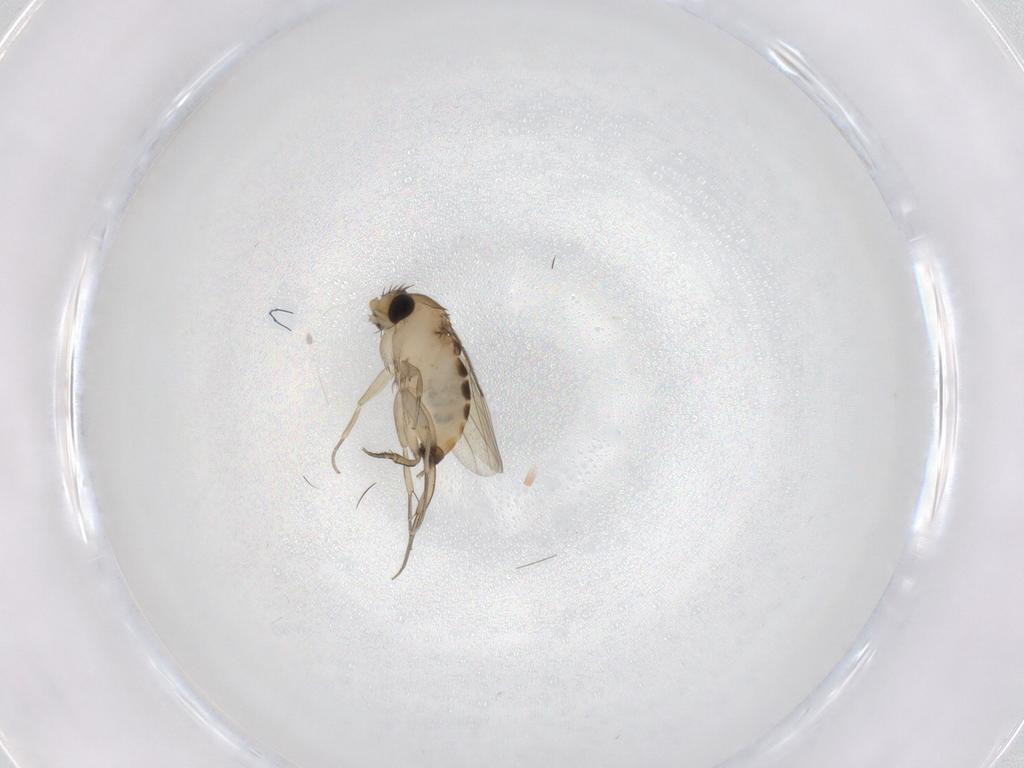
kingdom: Animalia
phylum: Arthropoda
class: Insecta
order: Diptera
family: Phoridae
